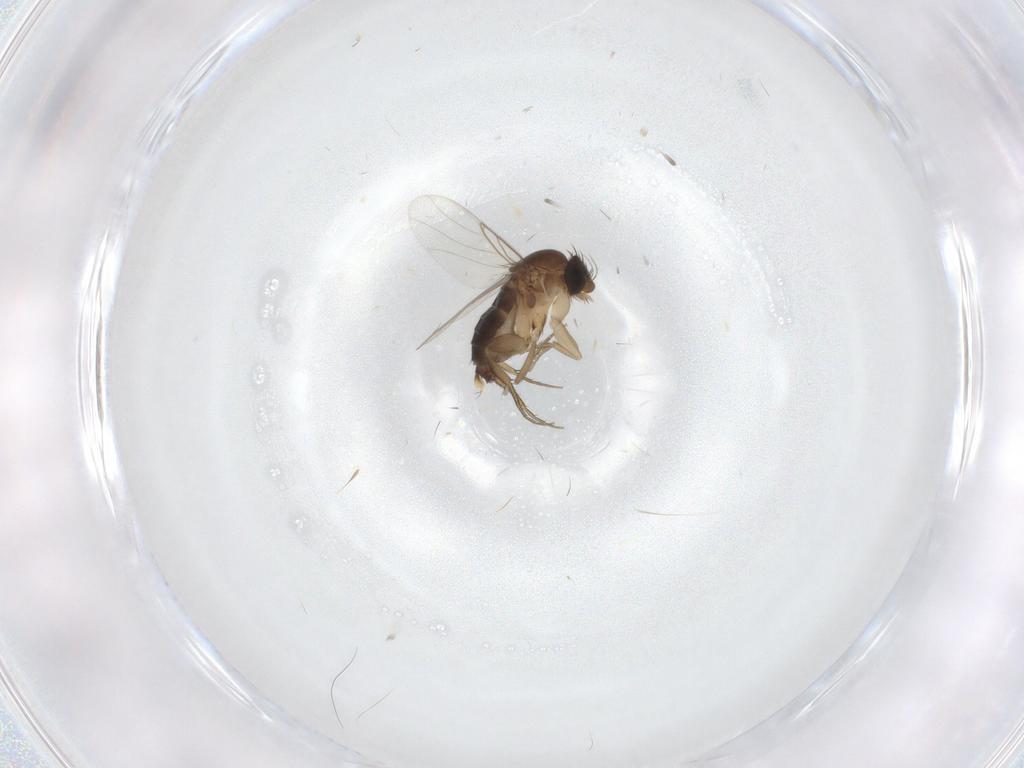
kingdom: Animalia
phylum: Arthropoda
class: Insecta
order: Diptera
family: Phoridae
